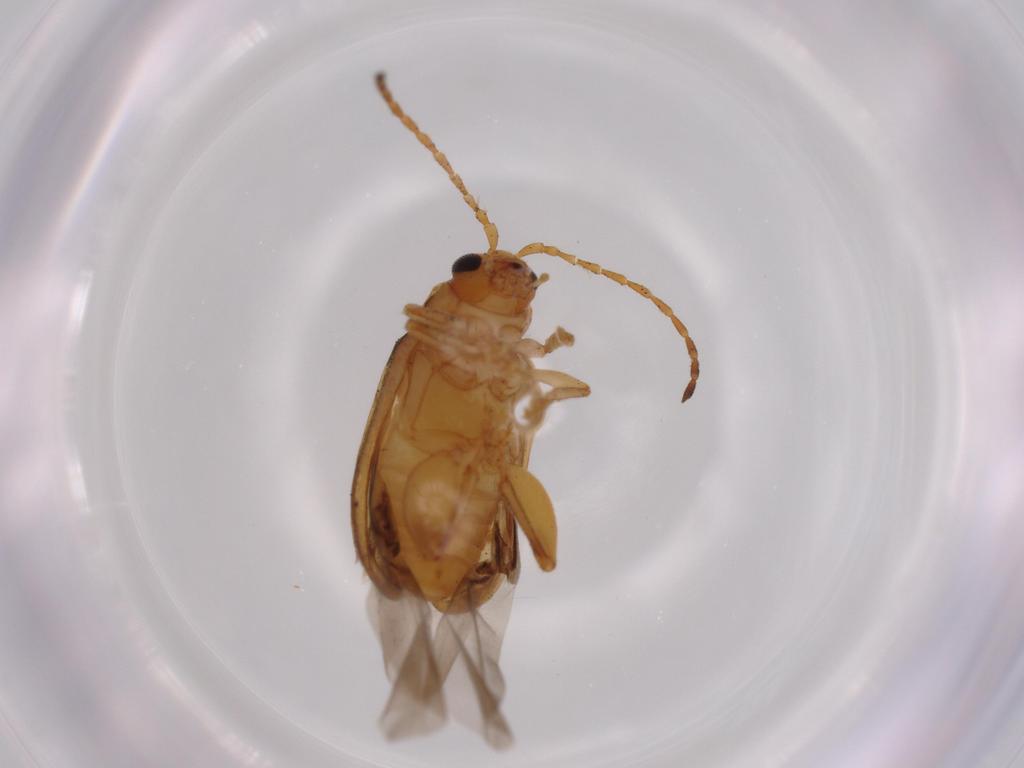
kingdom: Animalia
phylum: Arthropoda
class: Insecta
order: Coleoptera
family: Chrysomelidae
